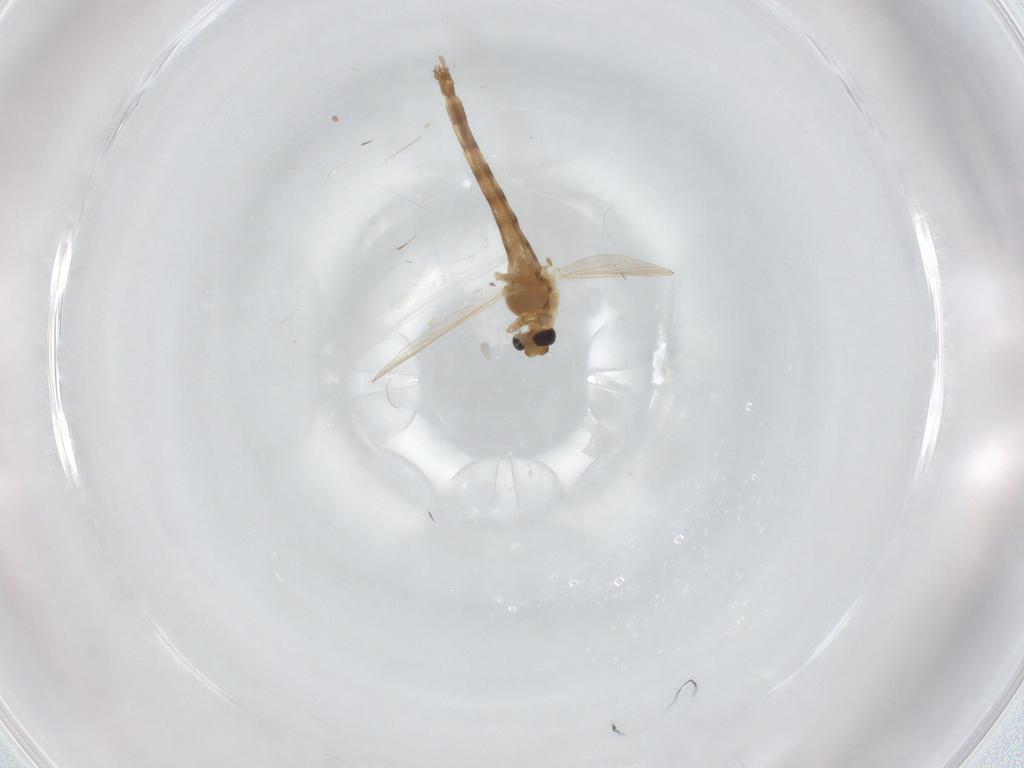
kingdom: Animalia
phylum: Arthropoda
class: Insecta
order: Diptera
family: Chironomidae
